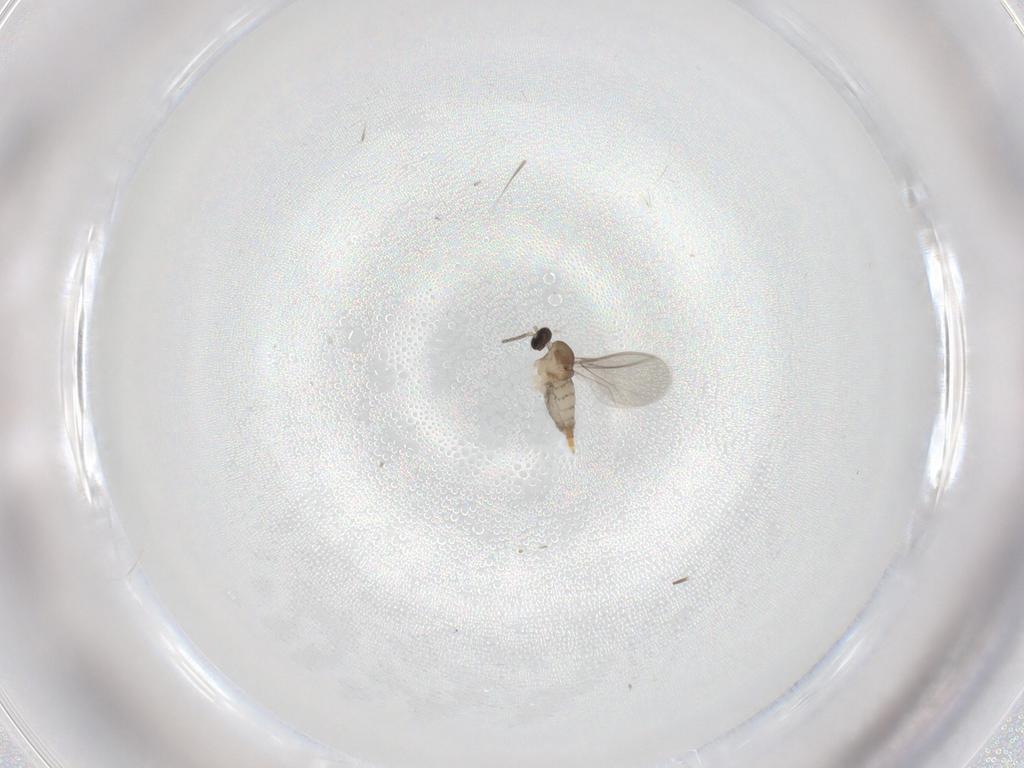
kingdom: Animalia
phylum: Arthropoda
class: Insecta
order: Diptera
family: Cecidomyiidae
